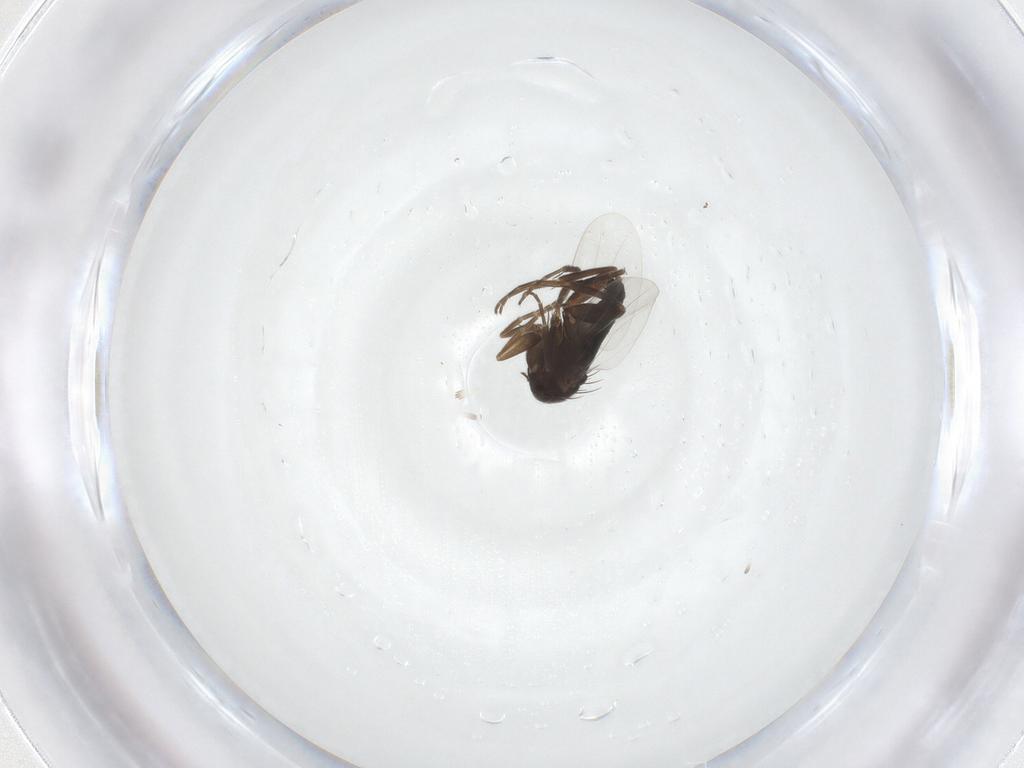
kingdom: Animalia
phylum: Arthropoda
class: Insecta
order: Diptera
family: Phoridae
